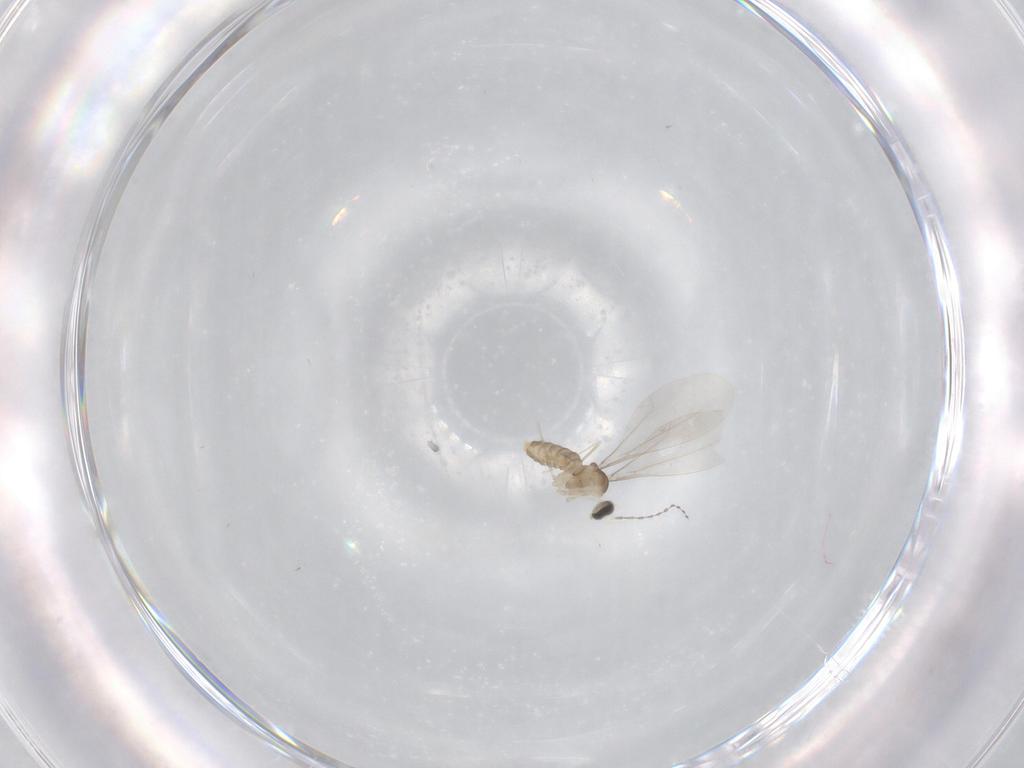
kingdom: Animalia
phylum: Arthropoda
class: Insecta
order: Diptera
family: Cecidomyiidae
